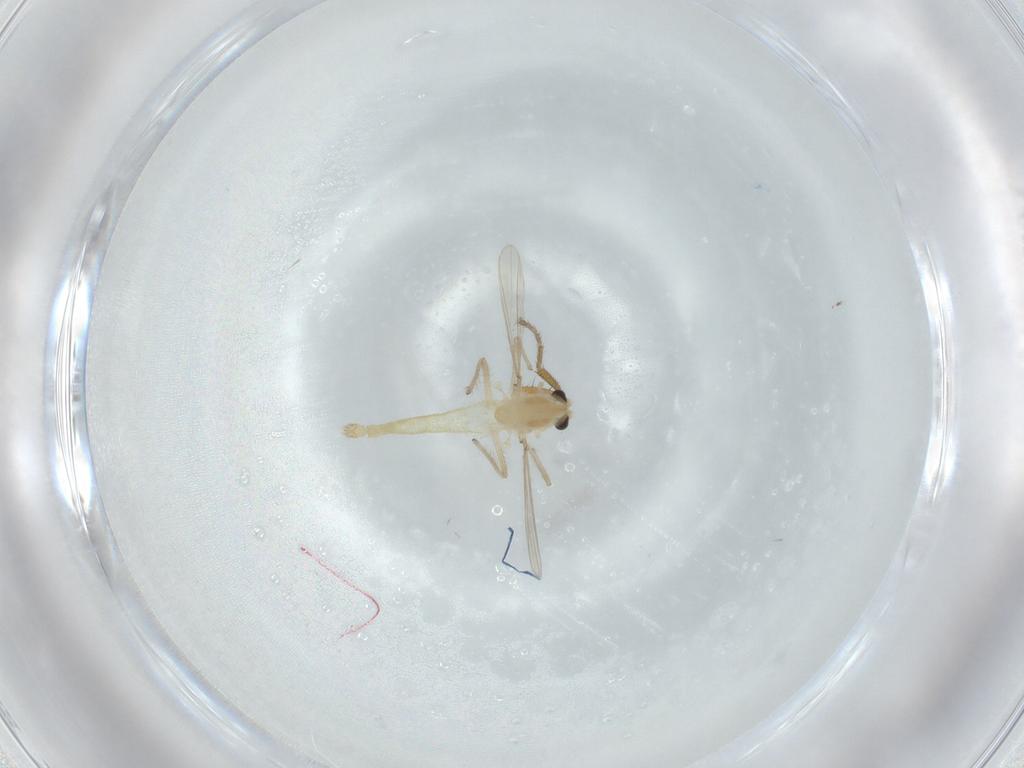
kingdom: Animalia
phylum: Arthropoda
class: Insecta
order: Diptera
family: Chironomidae
